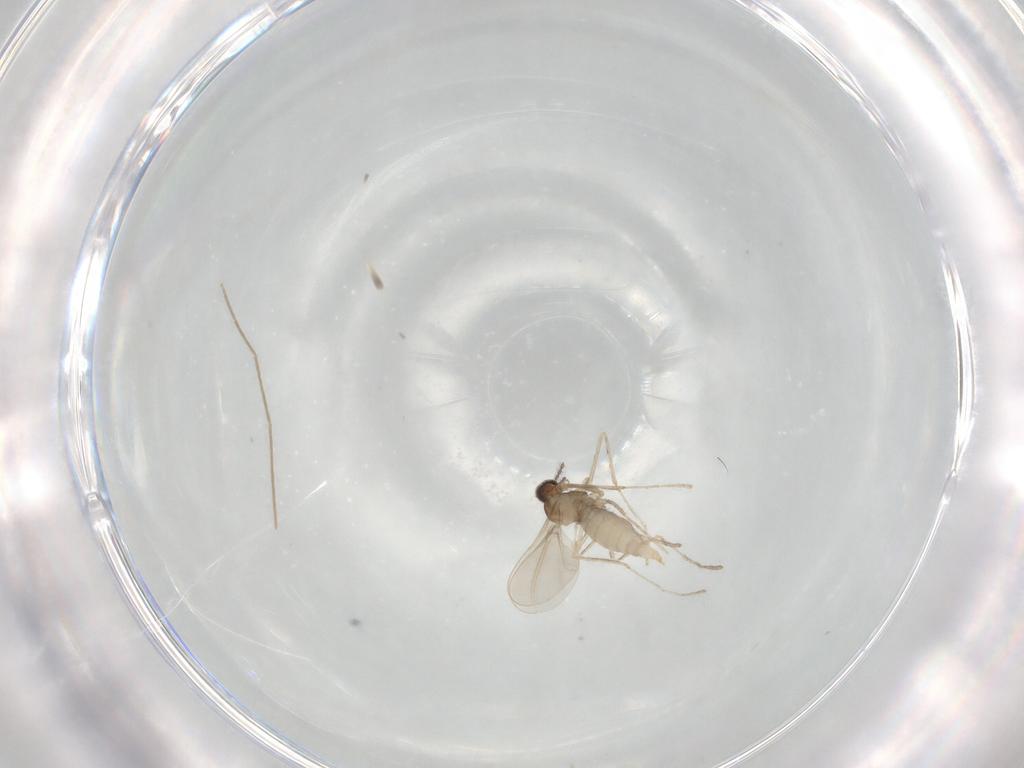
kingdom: Animalia
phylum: Arthropoda
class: Insecta
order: Diptera
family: Cecidomyiidae
